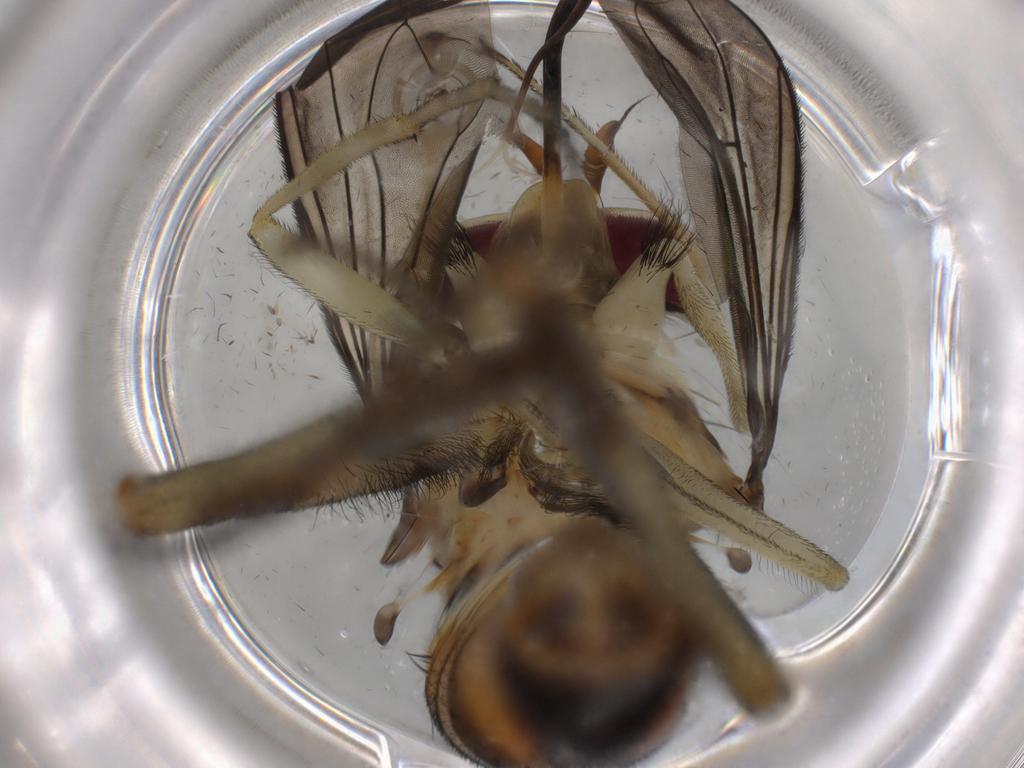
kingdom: Animalia
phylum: Arthropoda
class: Insecta
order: Diptera
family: Phoridae
